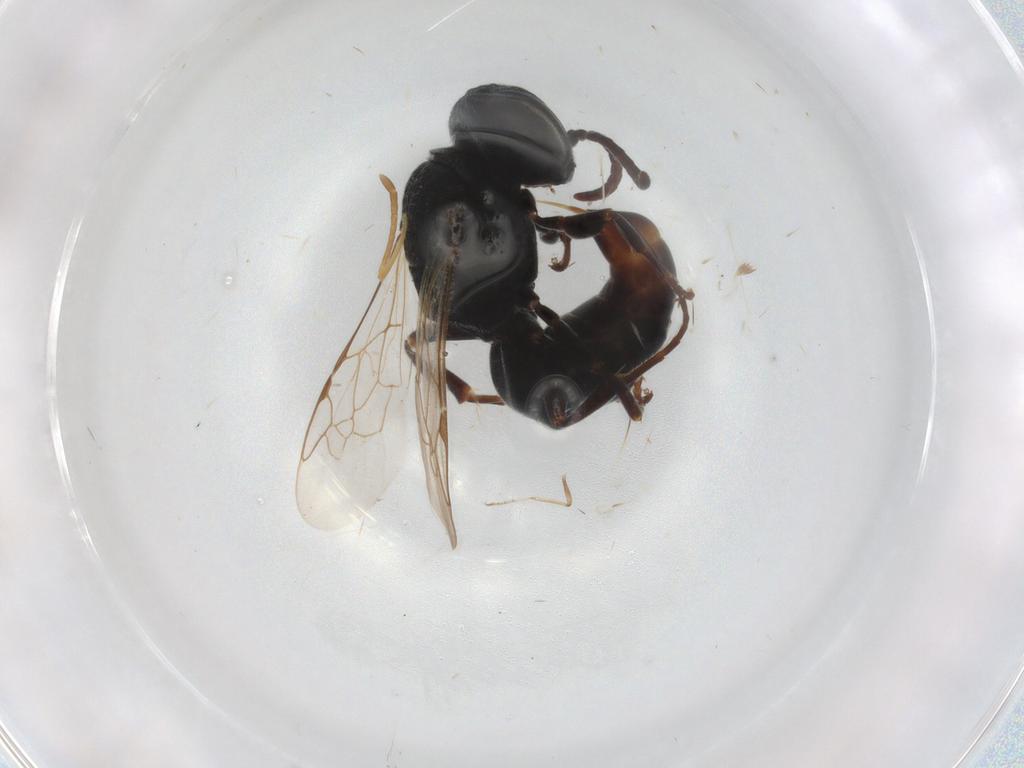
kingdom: Animalia
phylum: Arthropoda
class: Insecta
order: Hymenoptera
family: Crabronidae
